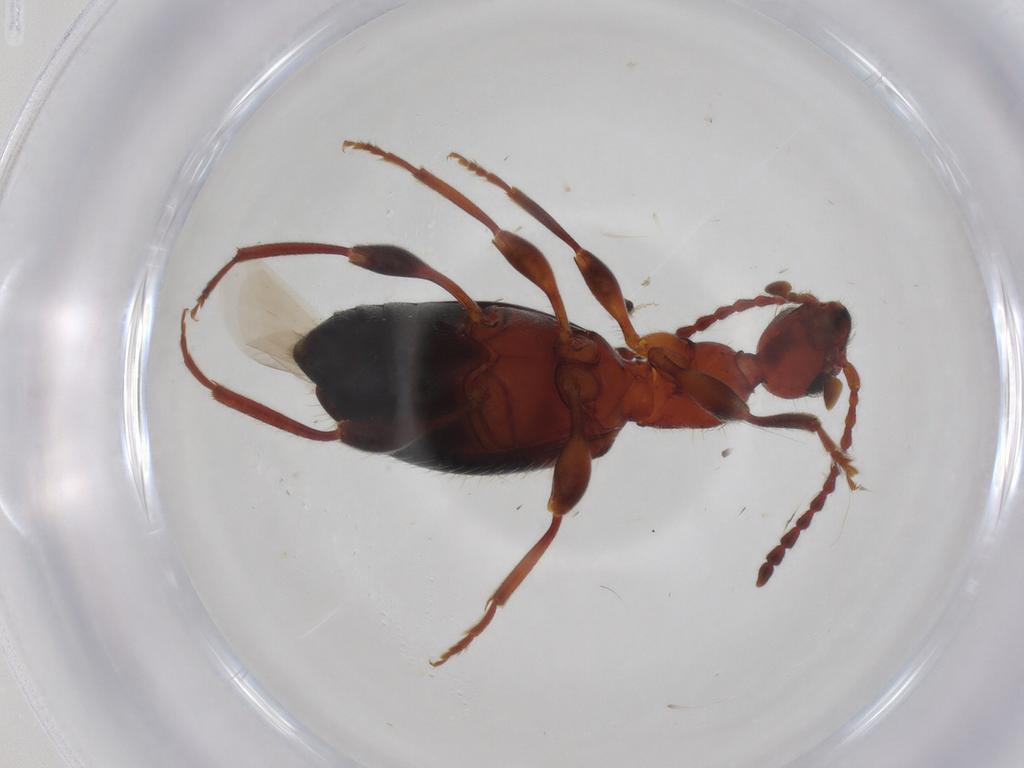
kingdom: Animalia
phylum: Arthropoda
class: Insecta
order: Coleoptera
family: Anthicidae
